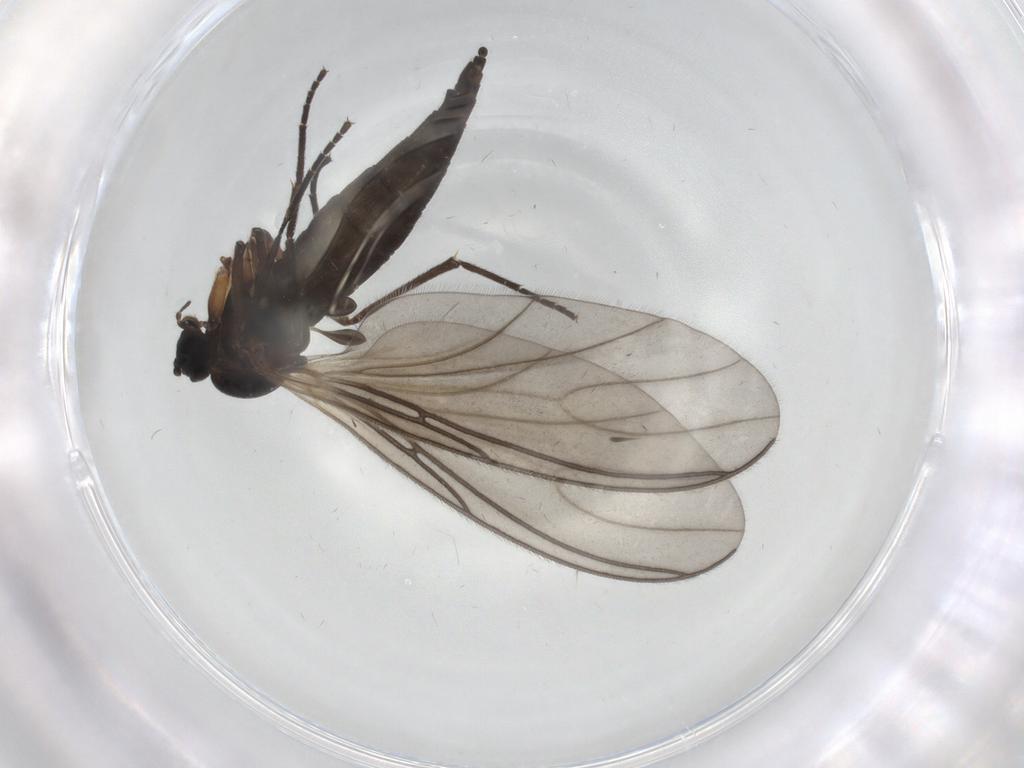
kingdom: Animalia
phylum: Arthropoda
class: Insecta
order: Diptera
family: Sciaridae
